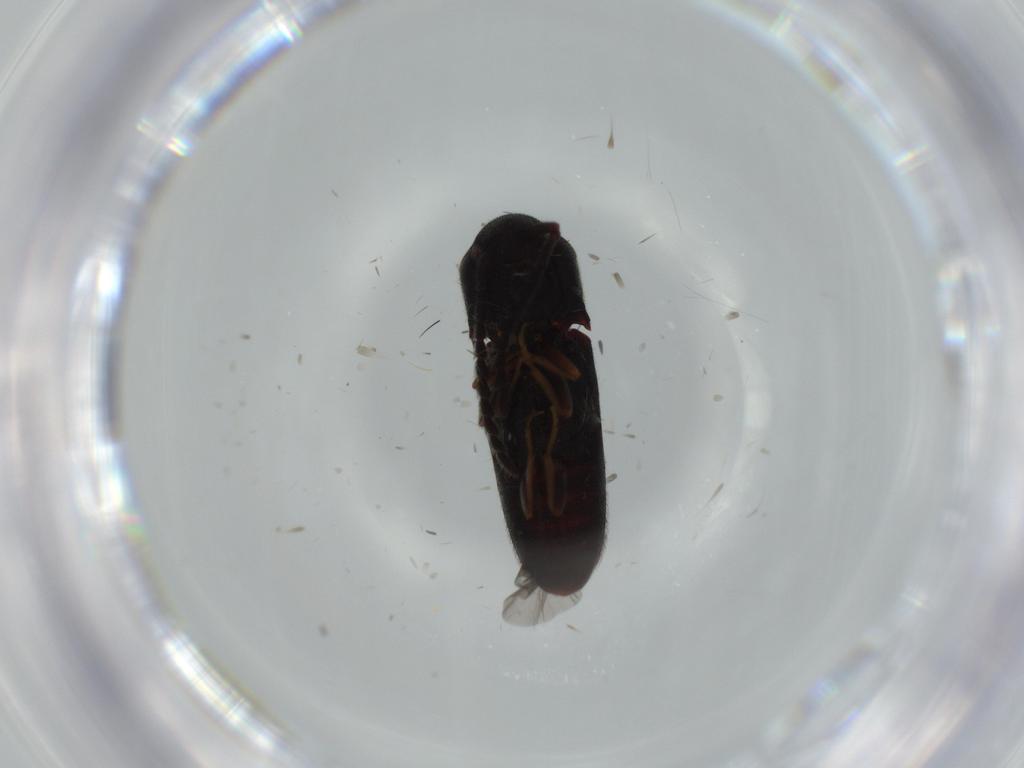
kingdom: Animalia
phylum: Arthropoda
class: Insecta
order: Coleoptera
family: Eucnemidae
